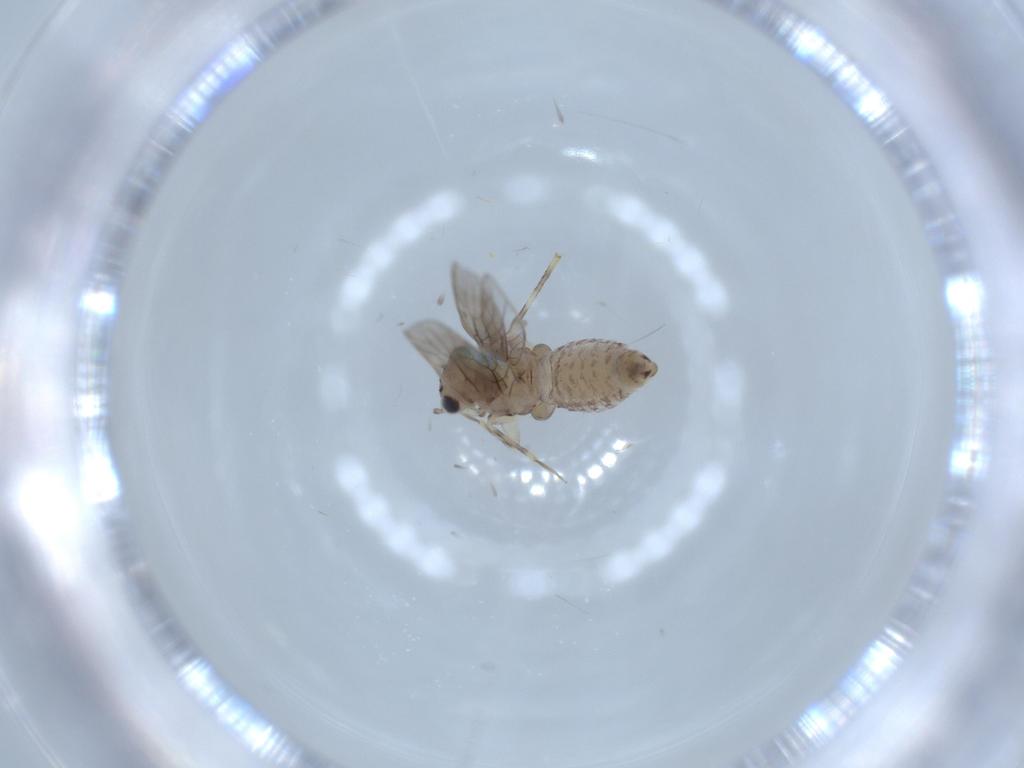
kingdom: Animalia
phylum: Arthropoda
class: Insecta
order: Psocodea
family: Lepidopsocidae
